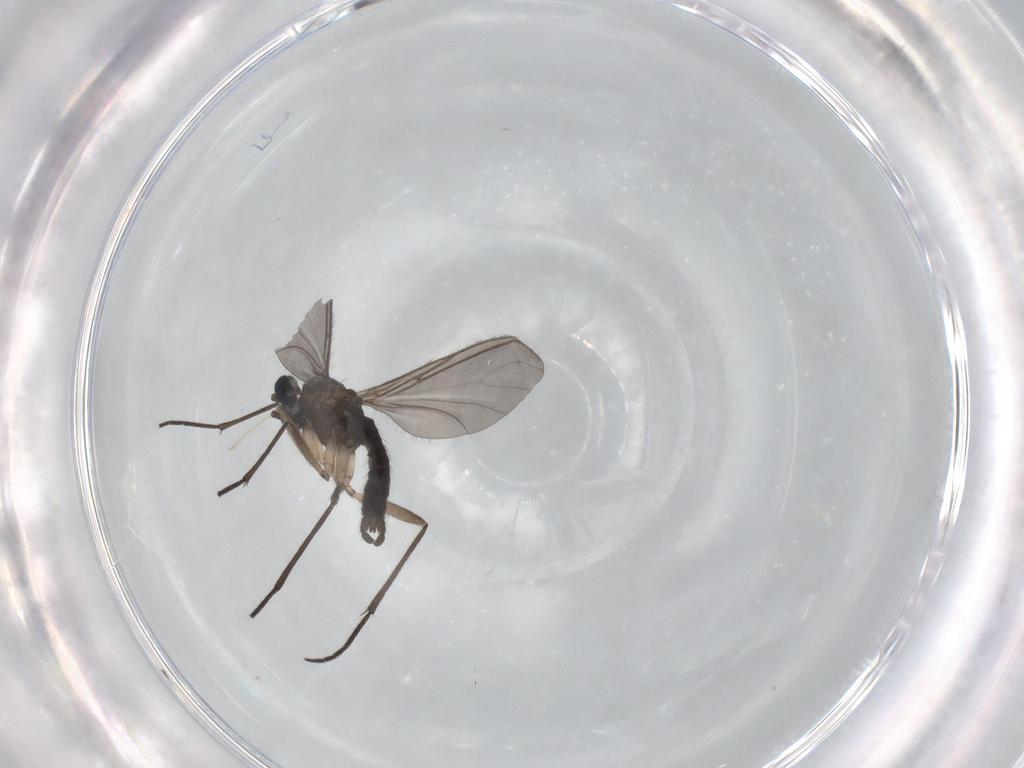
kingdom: Animalia
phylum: Arthropoda
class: Insecta
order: Diptera
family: Sciaridae
